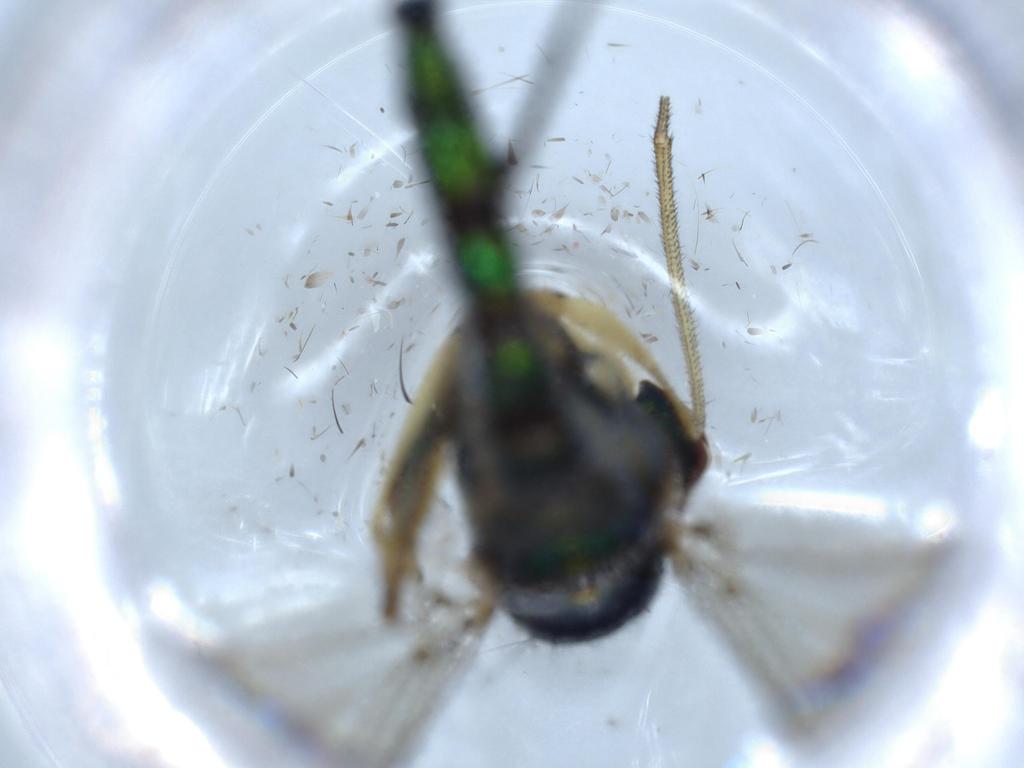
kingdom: Animalia
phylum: Arthropoda
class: Insecta
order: Diptera
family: Dolichopodidae
